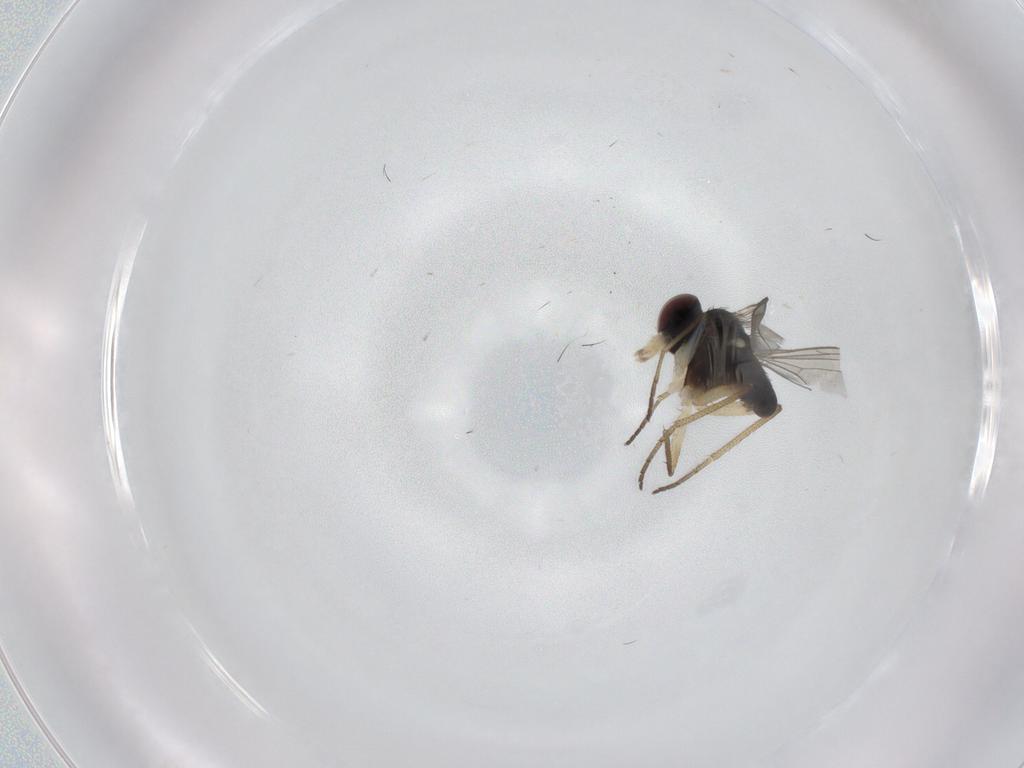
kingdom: Animalia
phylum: Arthropoda
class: Insecta
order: Diptera
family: Dolichopodidae
